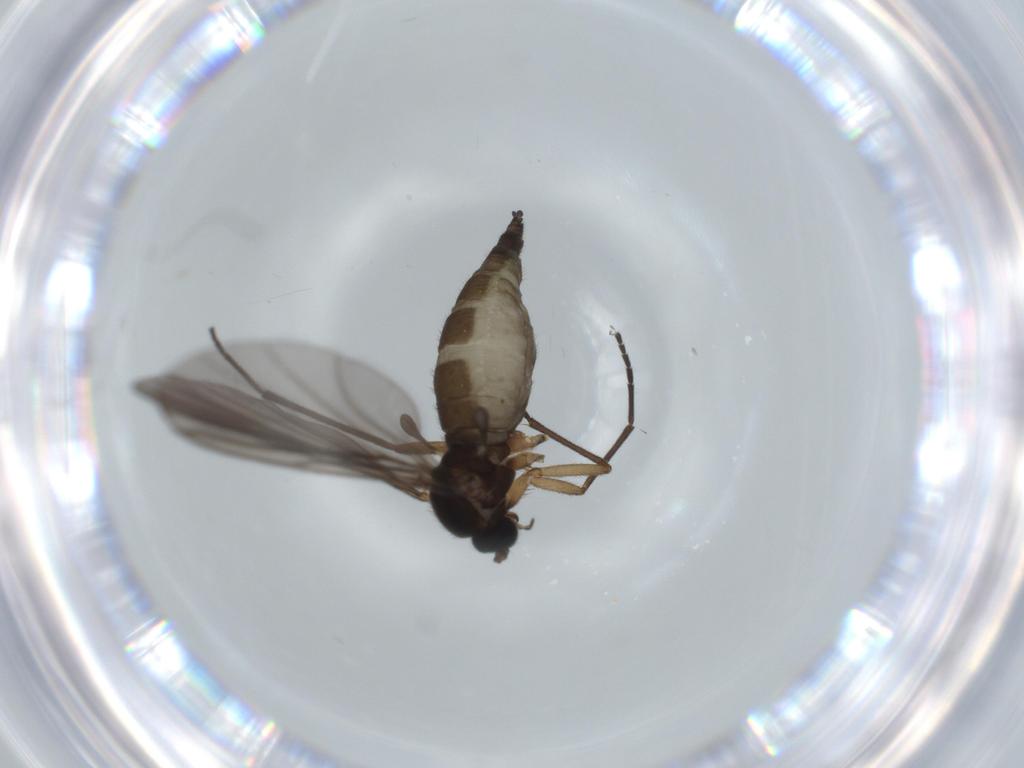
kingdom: Animalia
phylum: Arthropoda
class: Insecta
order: Diptera
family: Sciaridae
